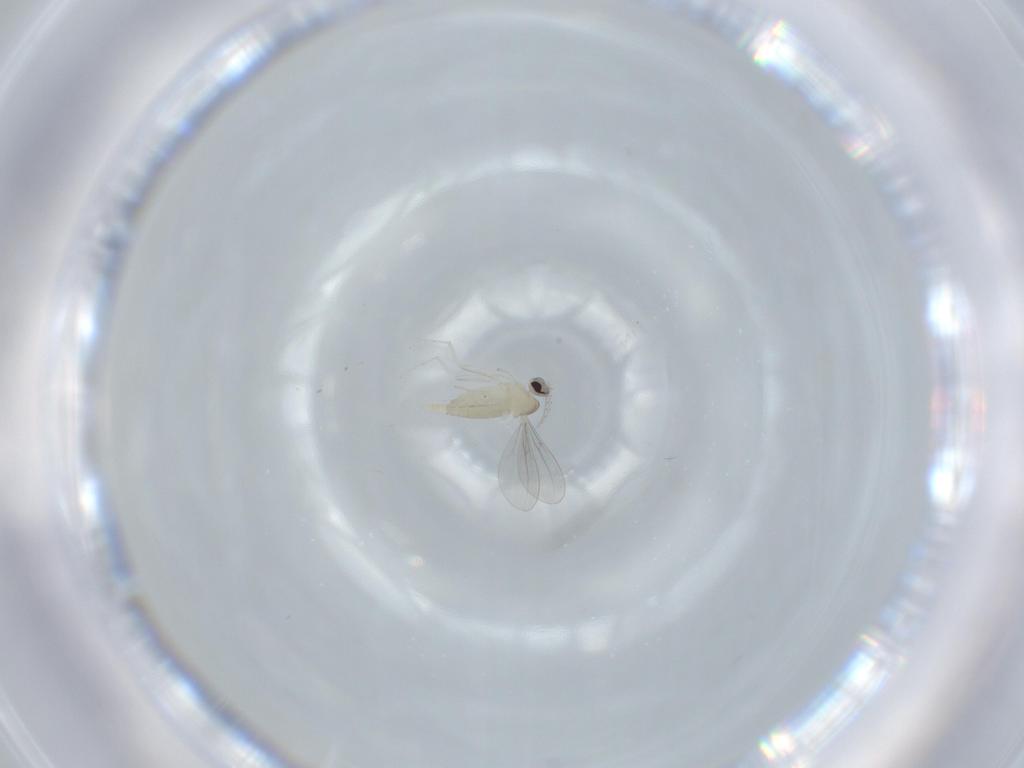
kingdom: Animalia
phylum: Arthropoda
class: Insecta
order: Diptera
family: Cecidomyiidae
